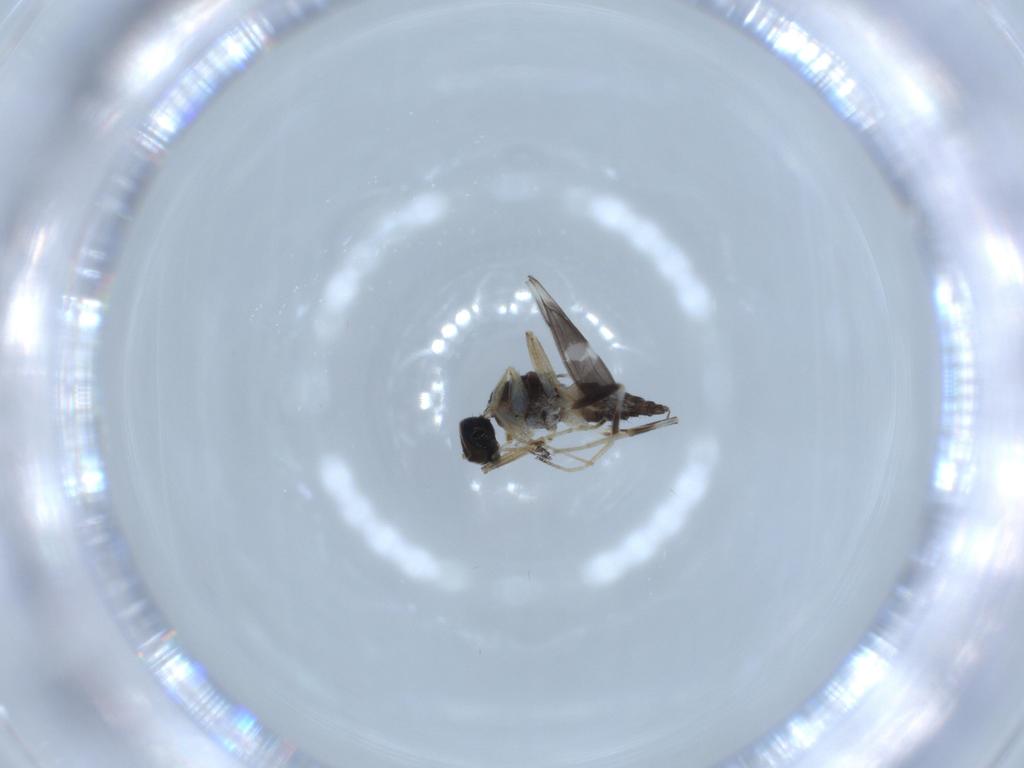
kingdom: Animalia
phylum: Arthropoda
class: Insecta
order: Diptera
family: Hybotidae
